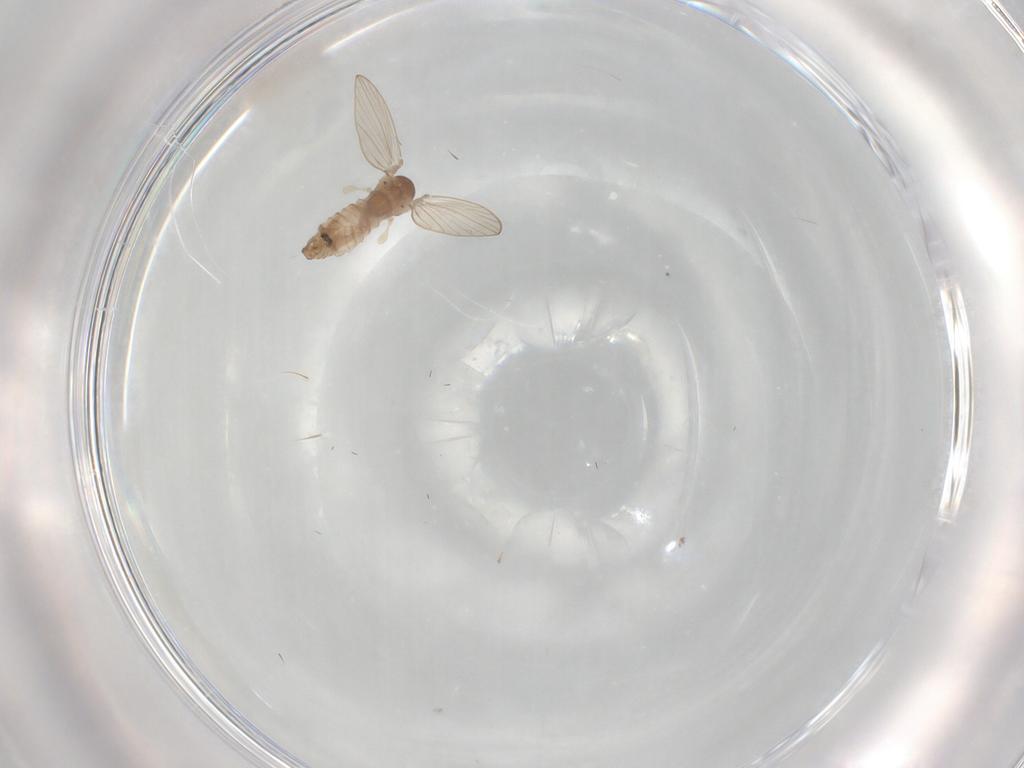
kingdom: Animalia
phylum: Arthropoda
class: Insecta
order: Diptera
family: Psychodidae
